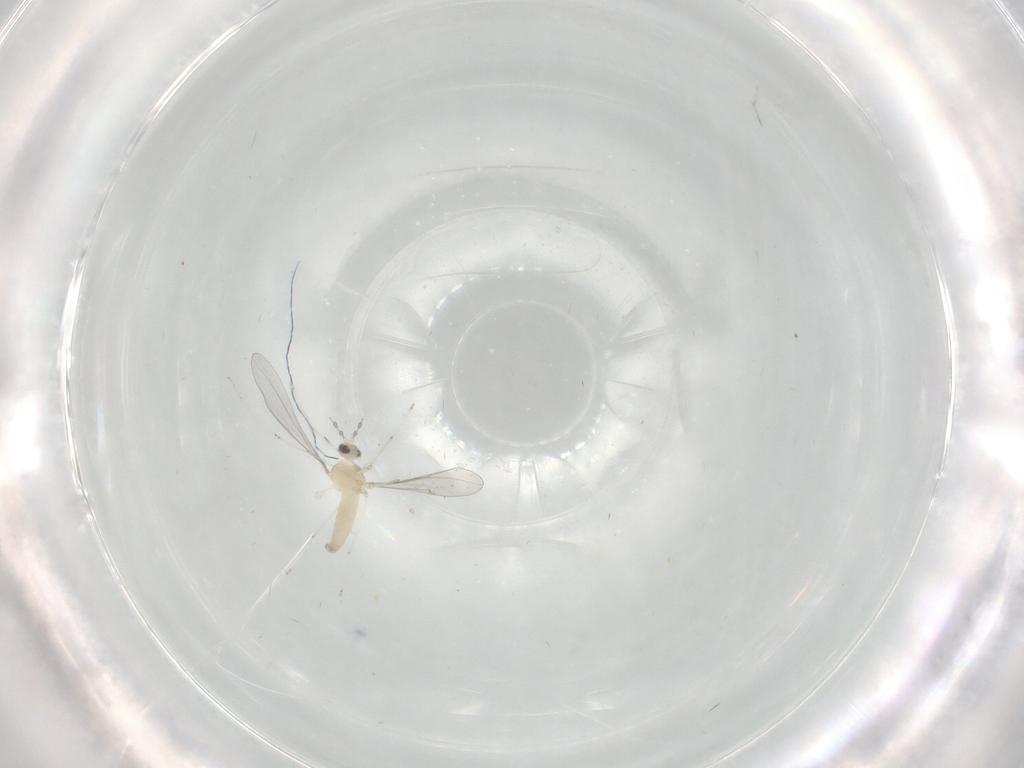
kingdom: Animalia
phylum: Arthropoda
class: Insecta
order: Diptera
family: Cecidomyiidae
